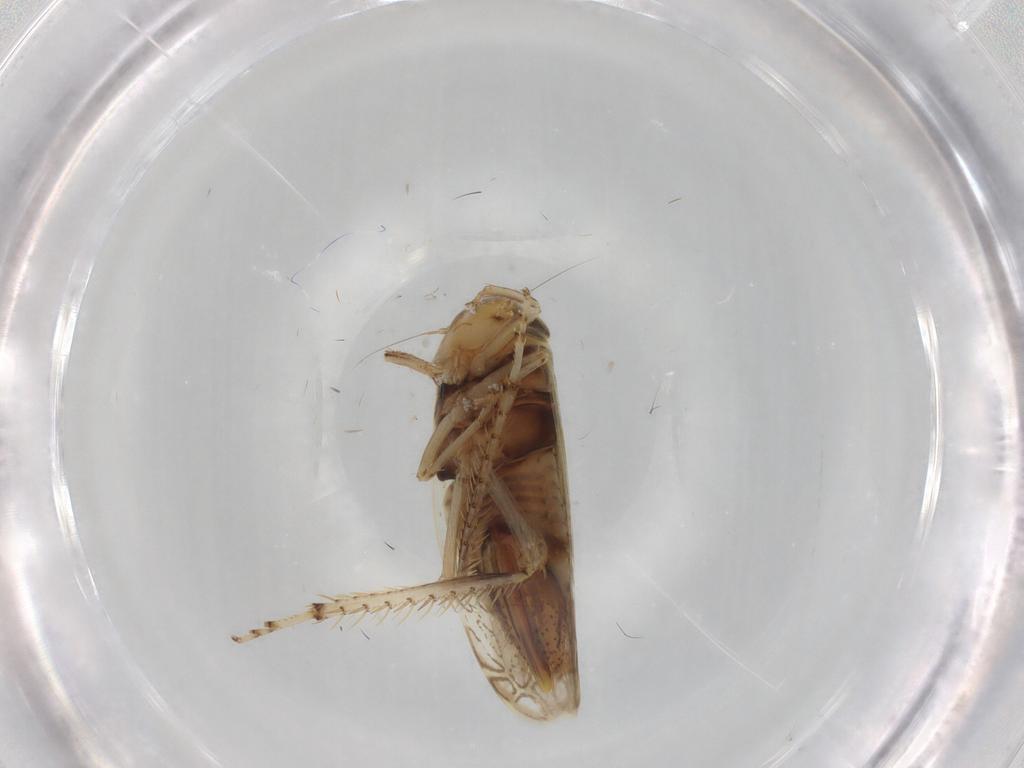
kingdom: Animalia
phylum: Arthropoda
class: Insecta
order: Hemiptera
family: Cicadellidae
